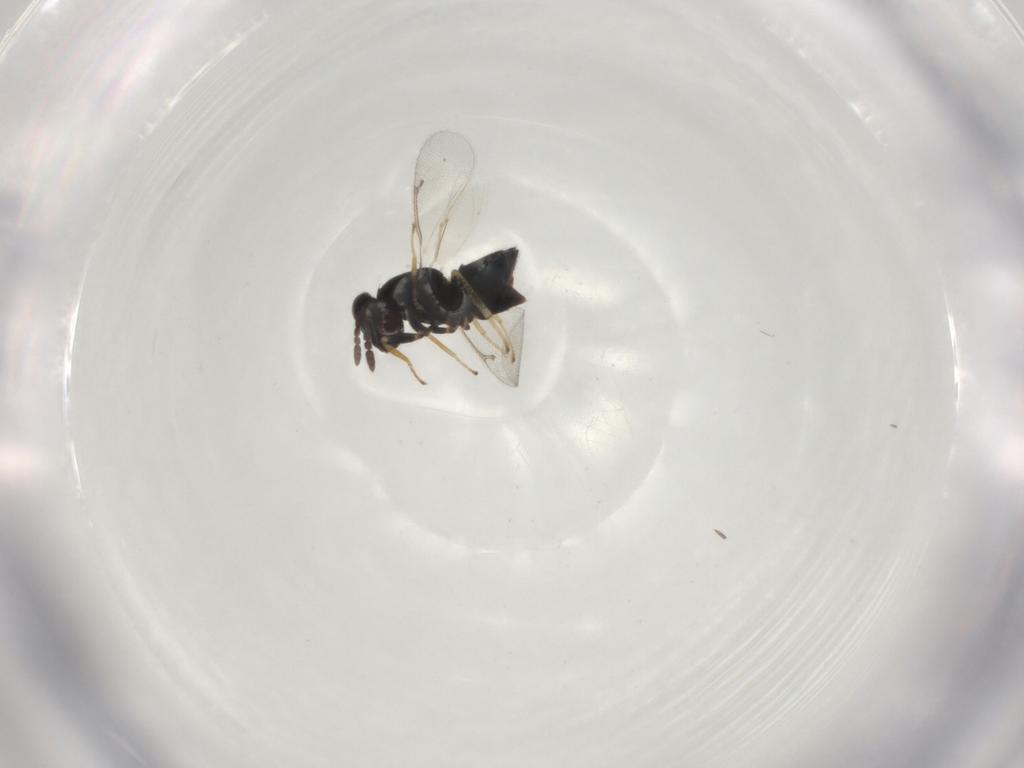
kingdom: Animalia
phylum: Arthropoda
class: Insecta
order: Hymenoptera
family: Eulophidae
